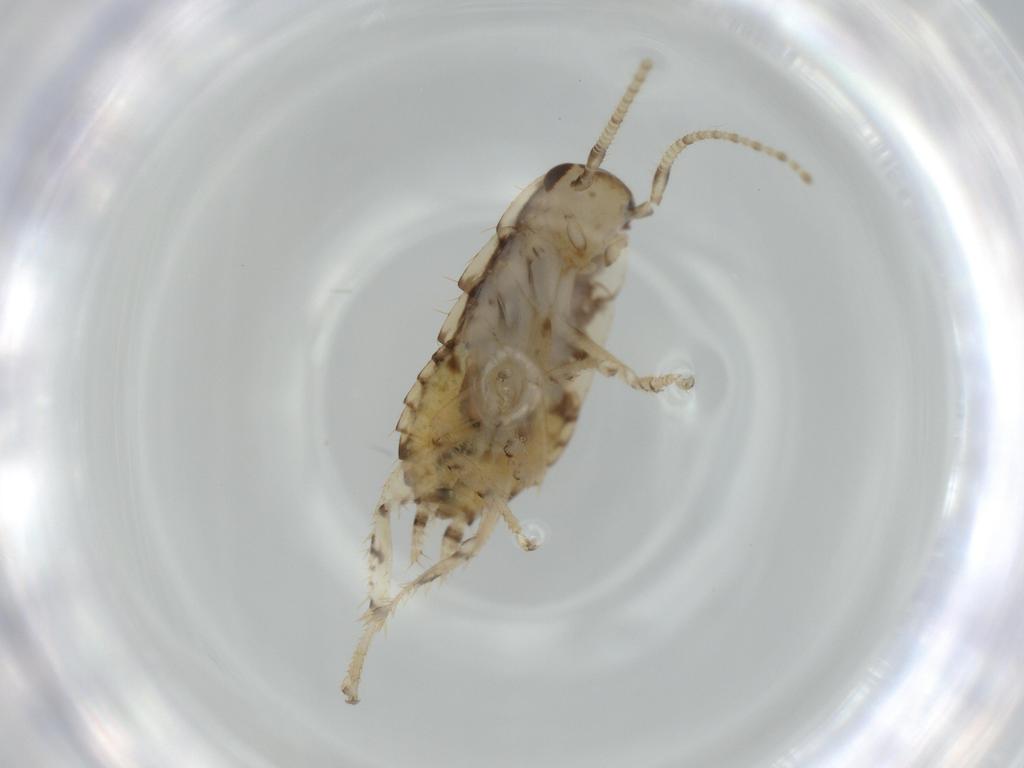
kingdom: Animalia
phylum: Arthropoda
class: Insecta
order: Blattodea
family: Ectobiidae
